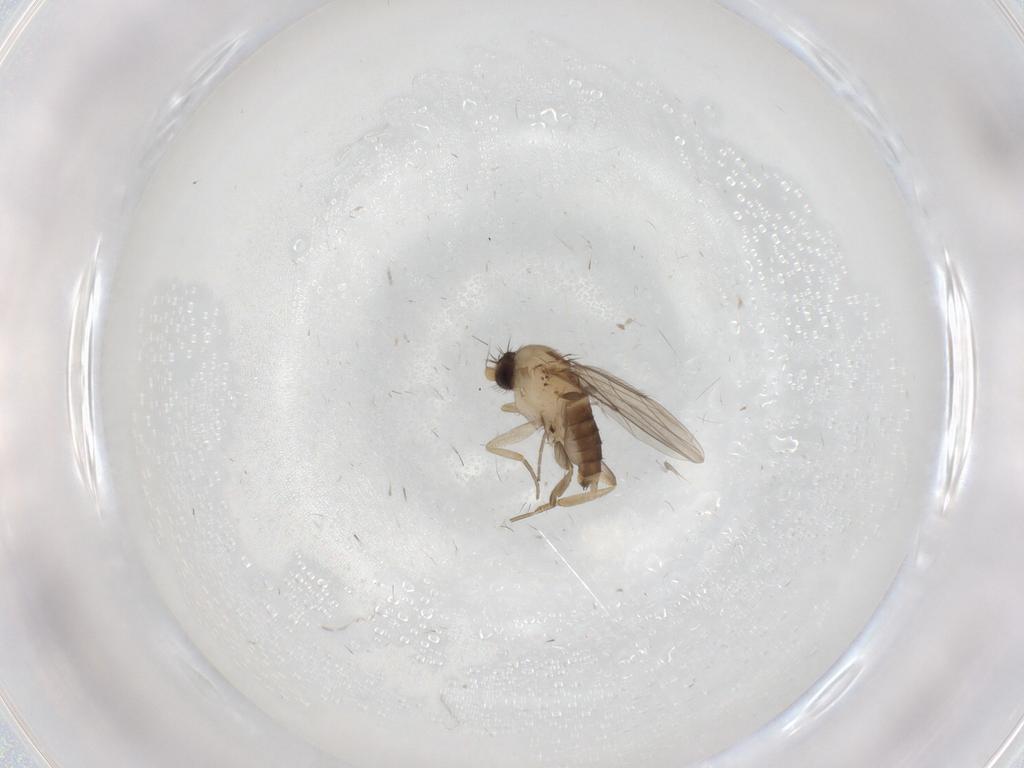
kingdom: Animalia
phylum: Arthropoda
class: Insecta
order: Diptera
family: Phoridae
